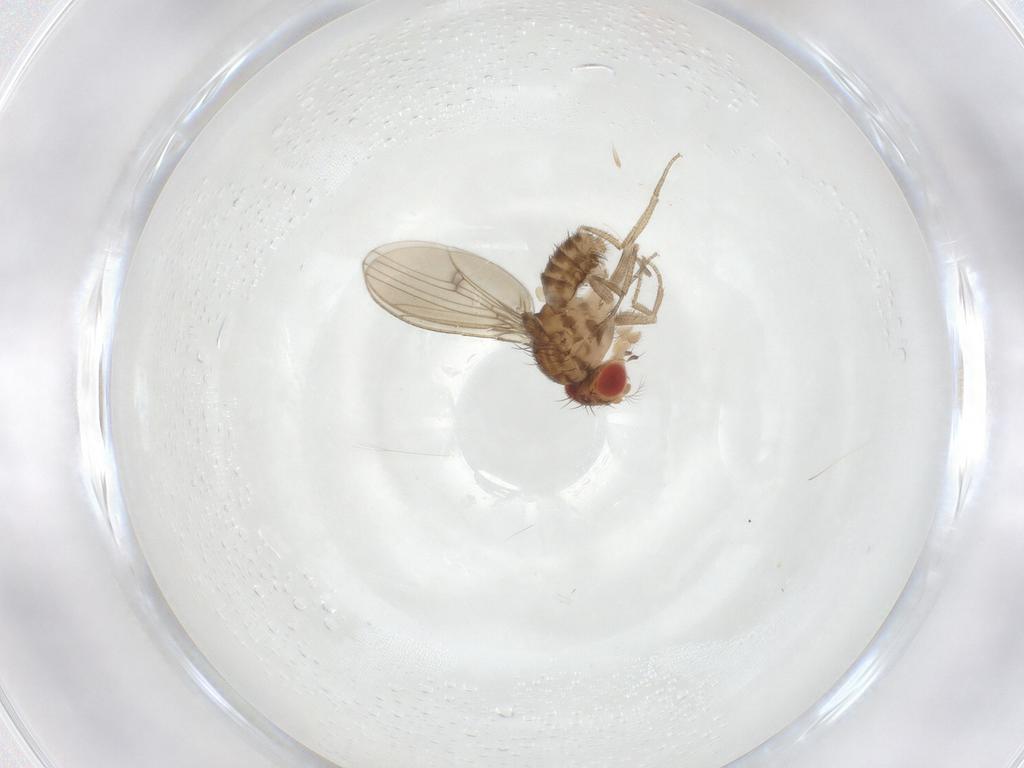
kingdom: Animalia
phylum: Arthropoda
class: Insecta
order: Diptera
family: Drosophilidae
